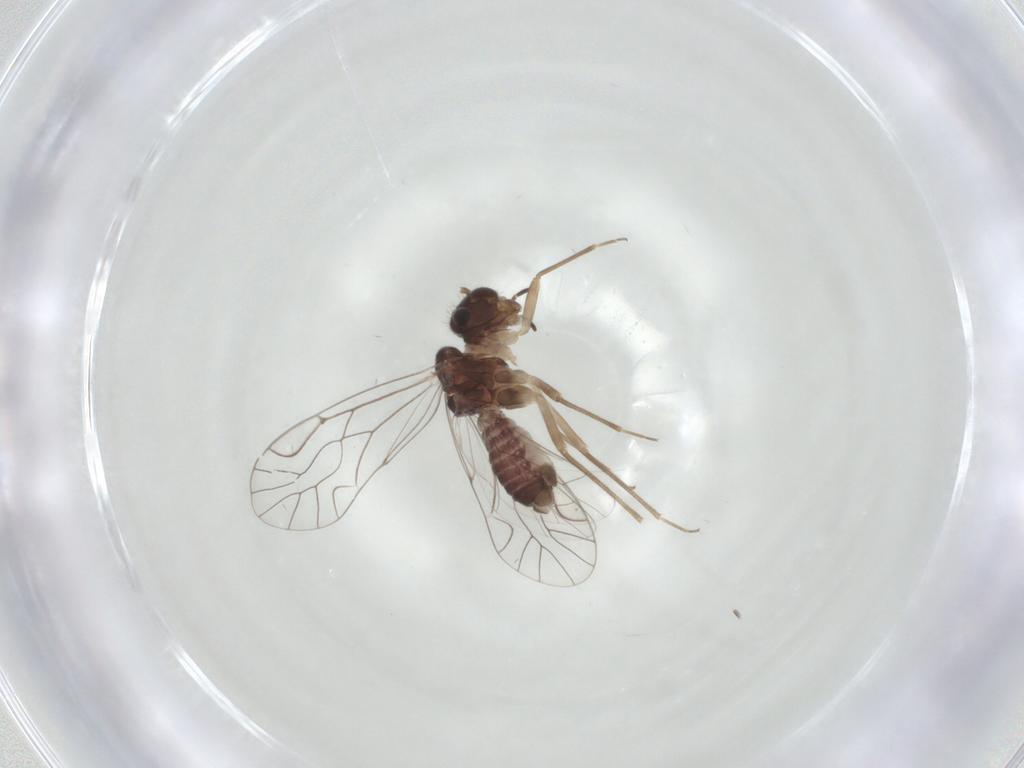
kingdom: Animalia
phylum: Arthropoda
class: Insecta
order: Psocodea
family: Lachesillidae
